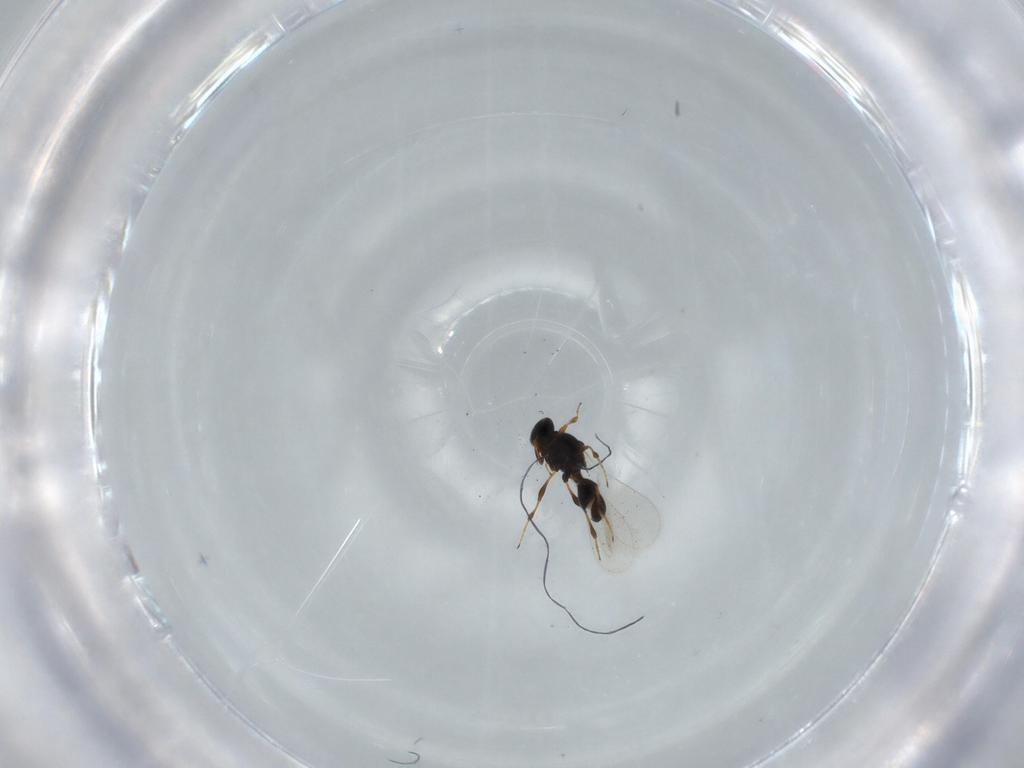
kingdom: Animalia
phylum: Arthropoda
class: Insecta
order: Hymenoptera
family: Platygastridae
